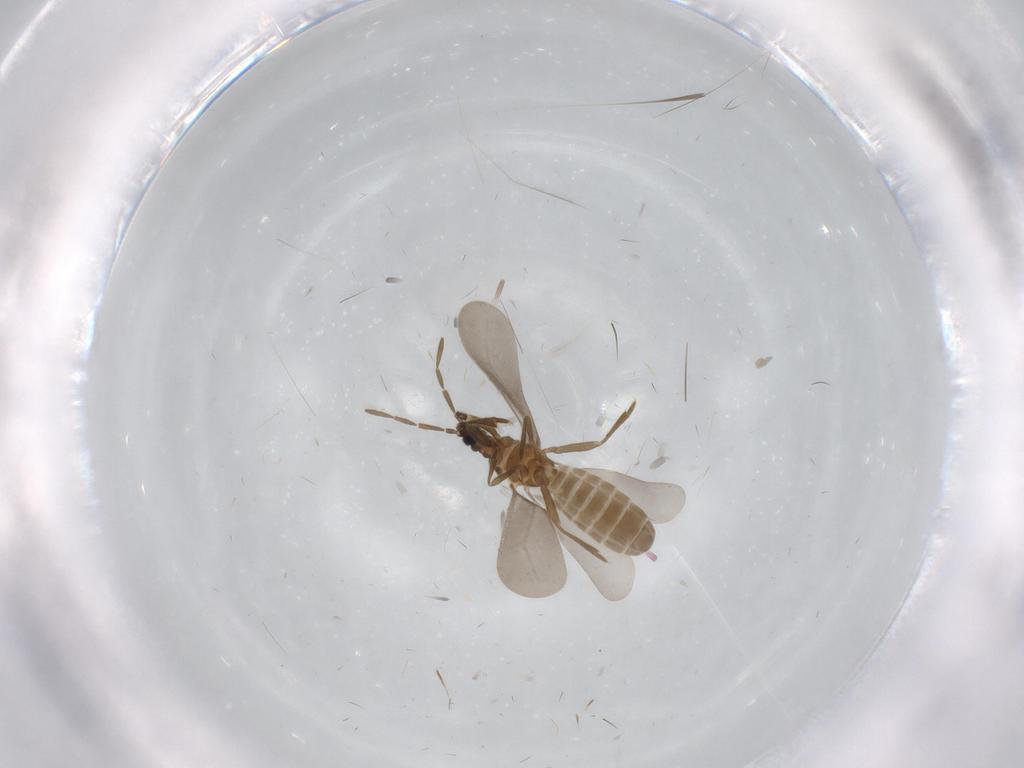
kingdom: Animalia
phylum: Arthropoda
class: Insecta
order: Hemiptera
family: Enicocephalidae
